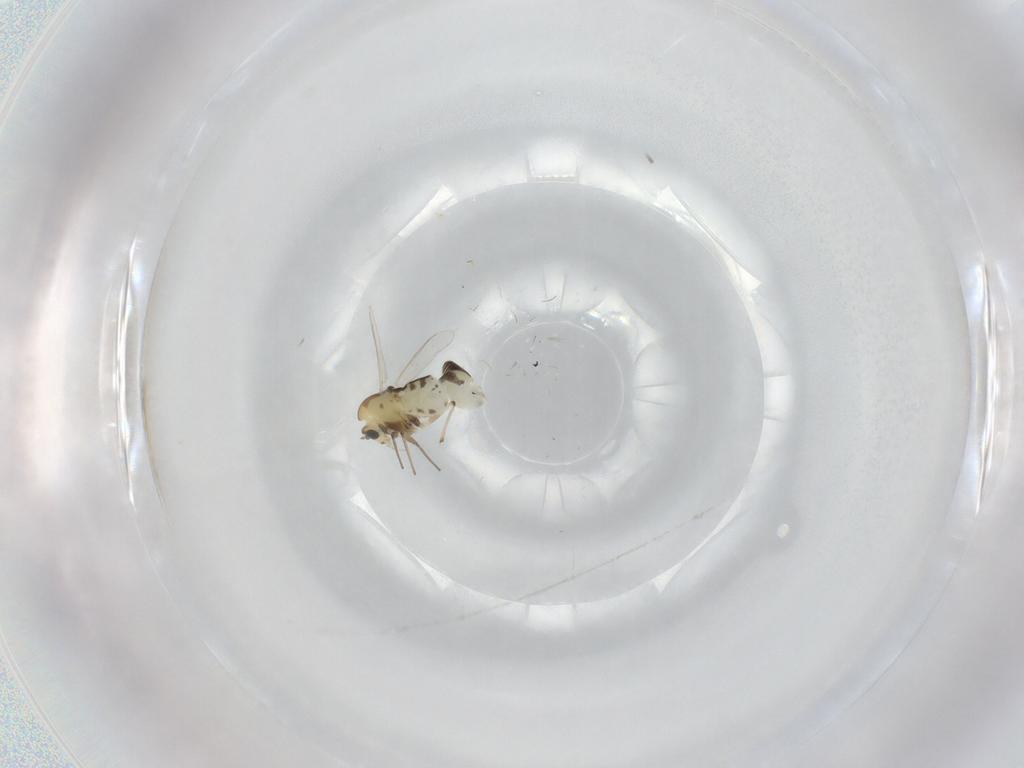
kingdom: Animalia
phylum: Arthropoda
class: Insecta
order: Diptera
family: Chironomidae
